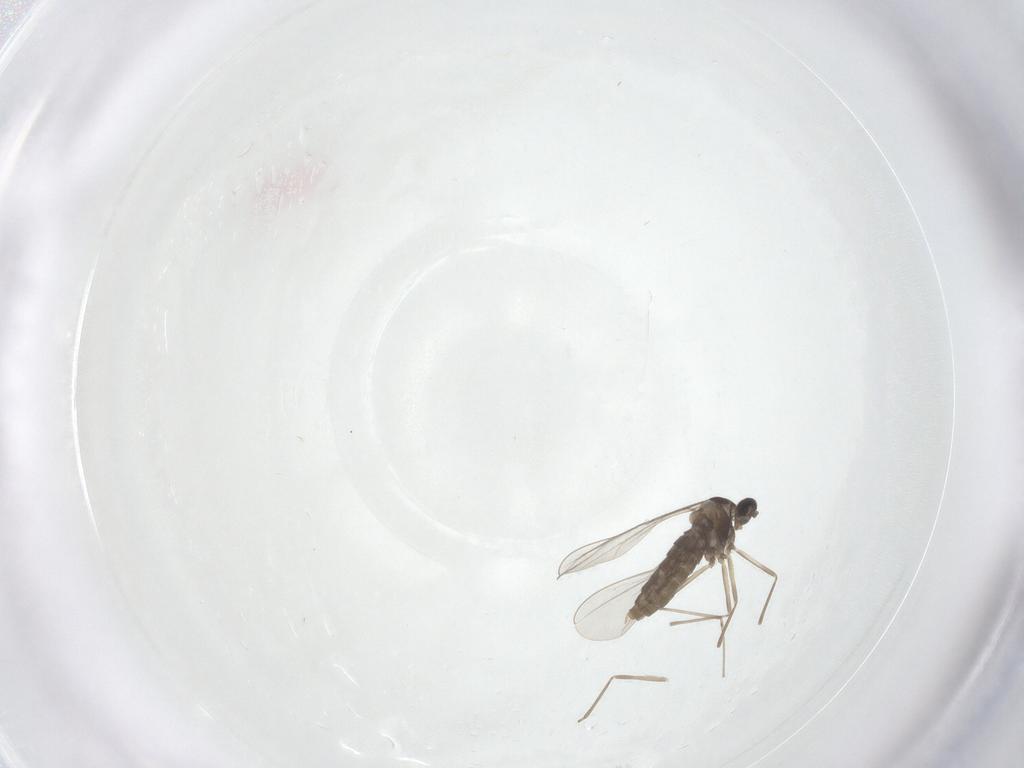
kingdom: Animalia
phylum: Arthropoda
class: Insecta
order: Diptera
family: Cecidomyiidae
